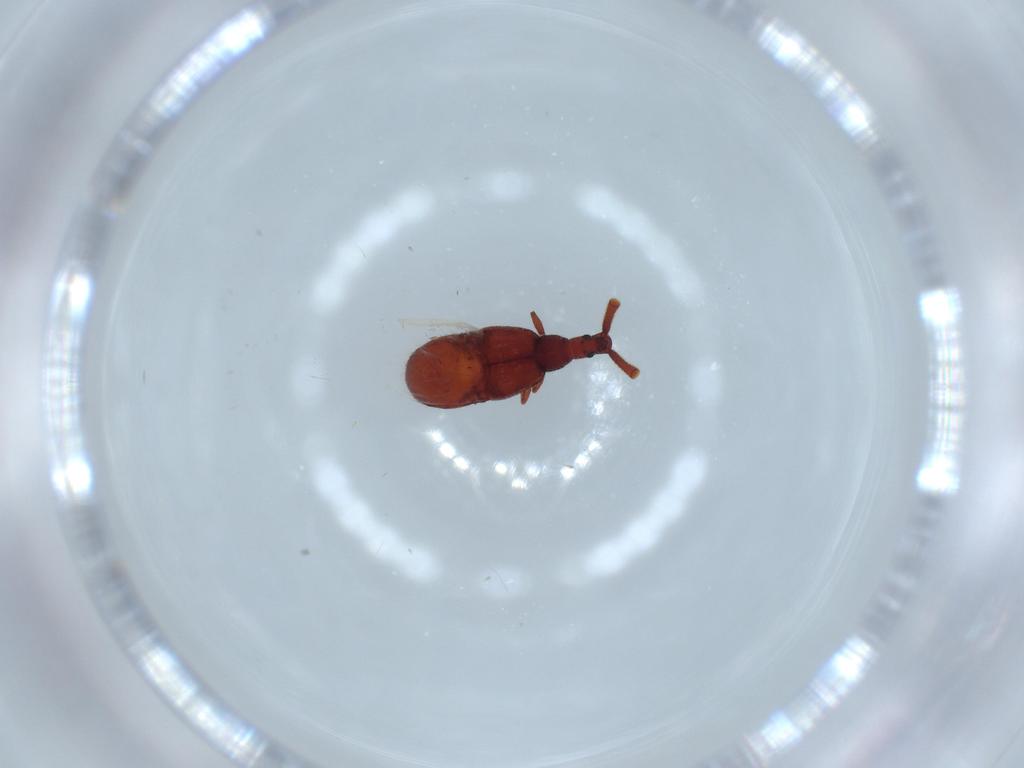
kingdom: Animalia
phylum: Arthropoda
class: Insecta
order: Coleoptera
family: Staphylinidae
